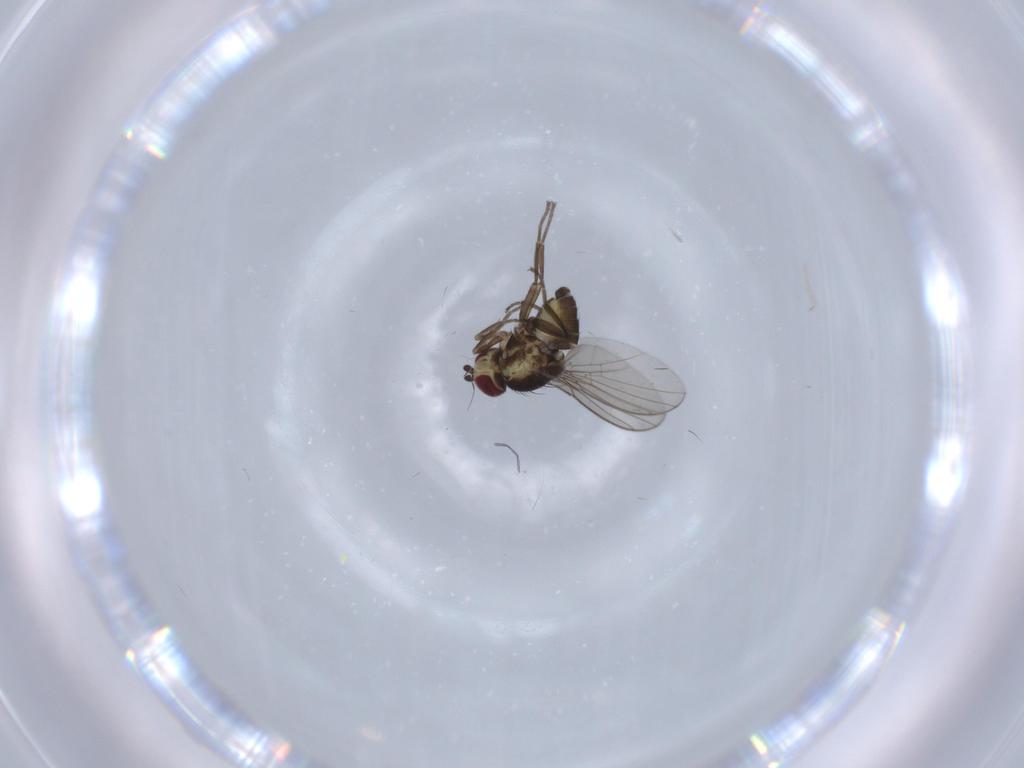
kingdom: Animalia
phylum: Arthropoda
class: Insecta
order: Diptera
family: Agromyzidae
